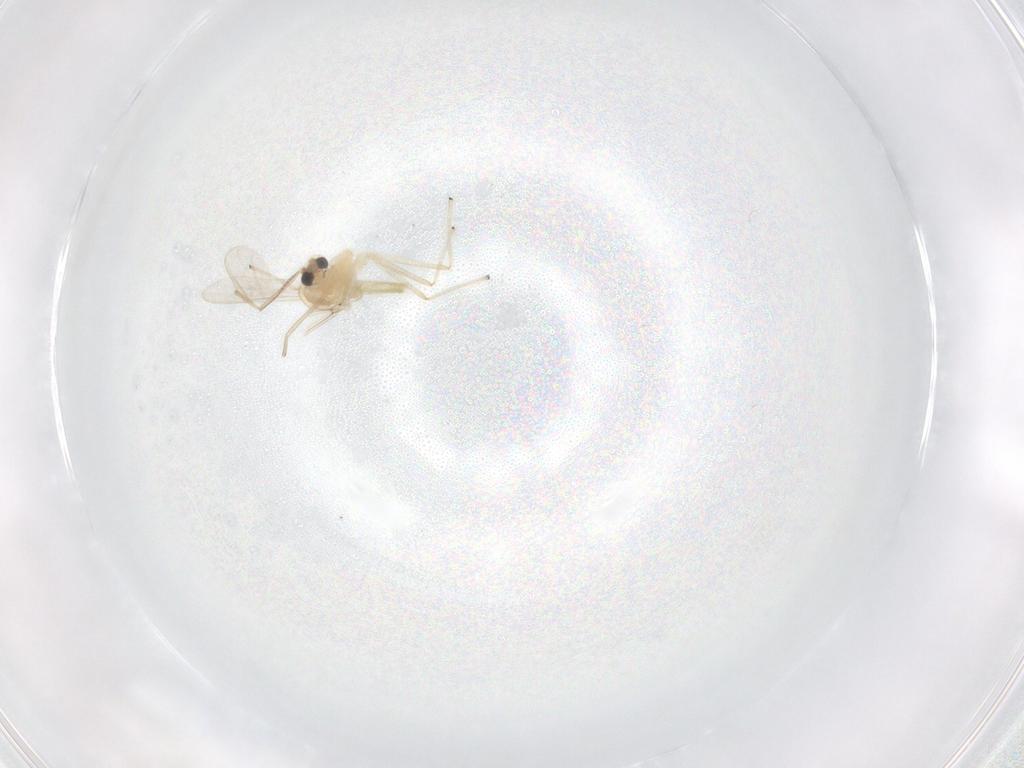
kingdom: Animalia
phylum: Arthropoda
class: Insecta
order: Diptera
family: Chironomidae
